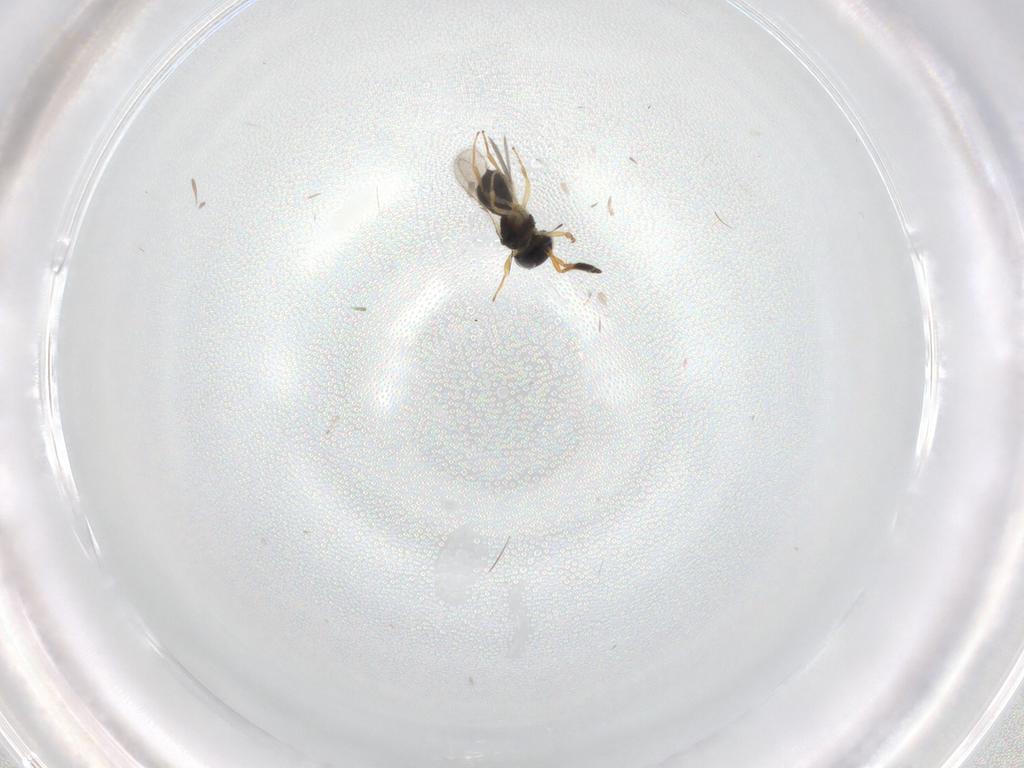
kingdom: Animalia
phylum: Arthropoda
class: Insecta
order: Hymenoptera
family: Scelionidae
